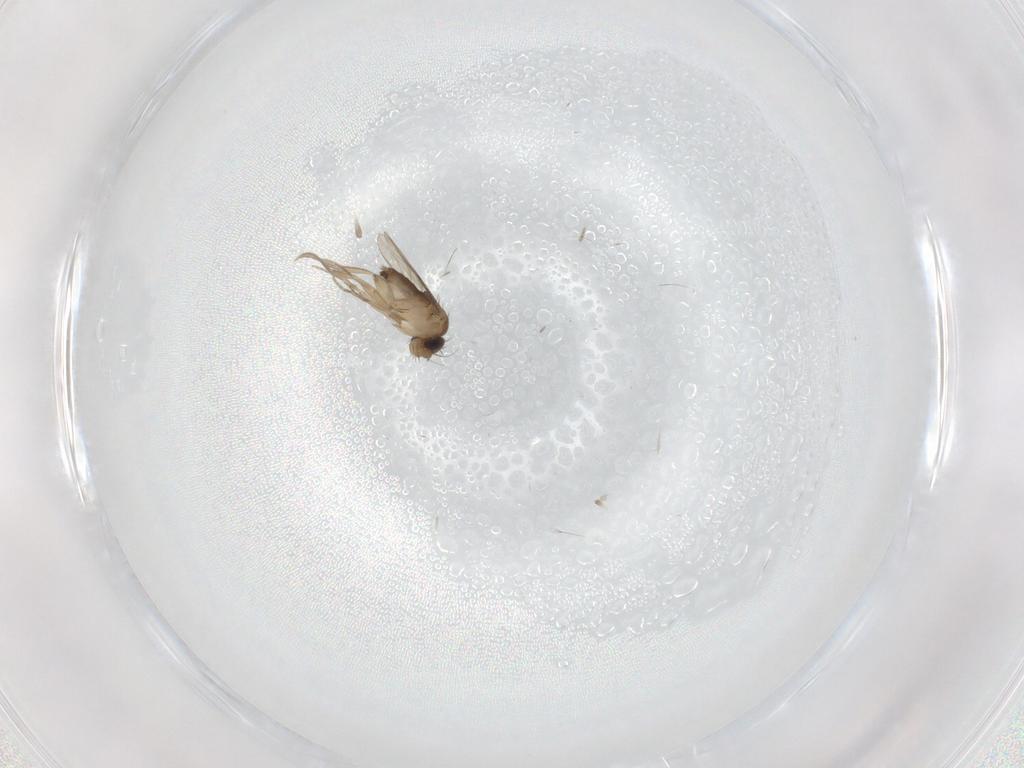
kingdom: Animalia
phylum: Arthropoda
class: Insecta
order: Diptera
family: Phoridae
